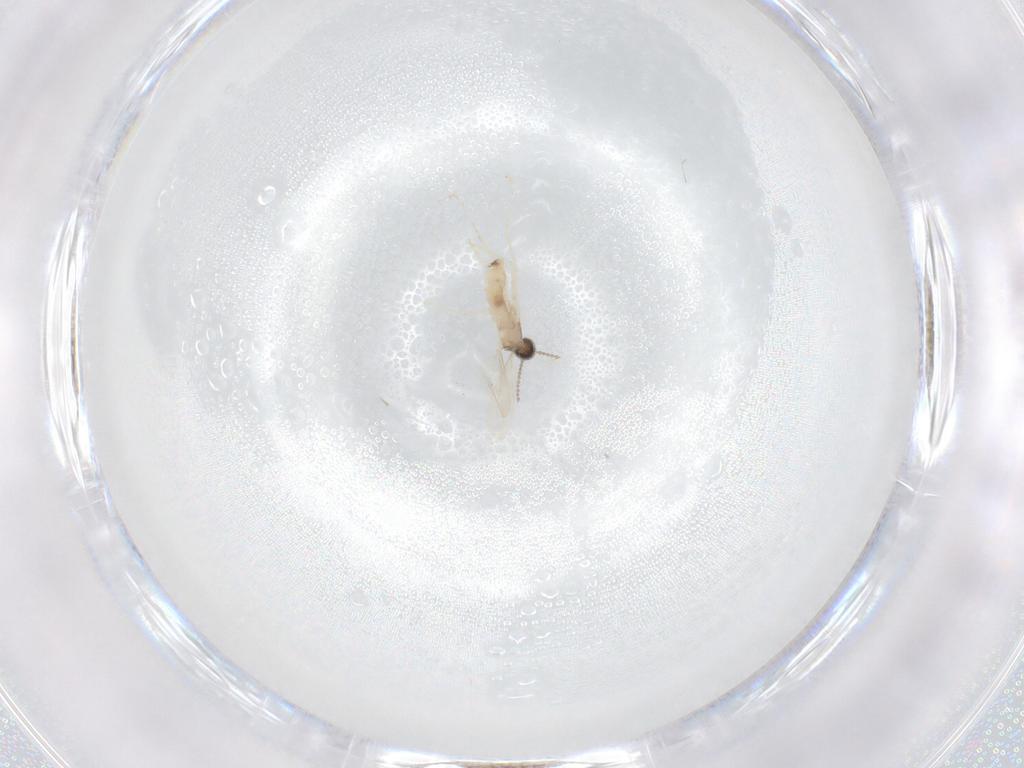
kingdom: Animalia
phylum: Arthropoda
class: Insecta
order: Diptera
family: Cecidomyiidae
